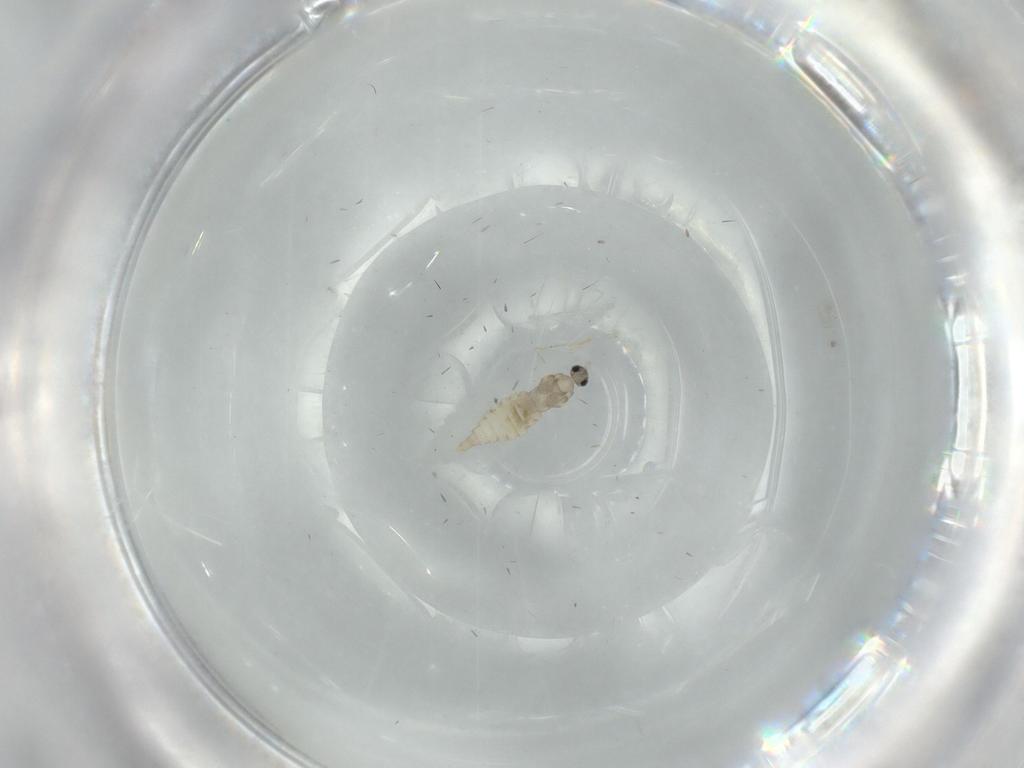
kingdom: Animalia
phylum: Arthropoda
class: Insecta
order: Diptera
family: Cecidomyiidae
